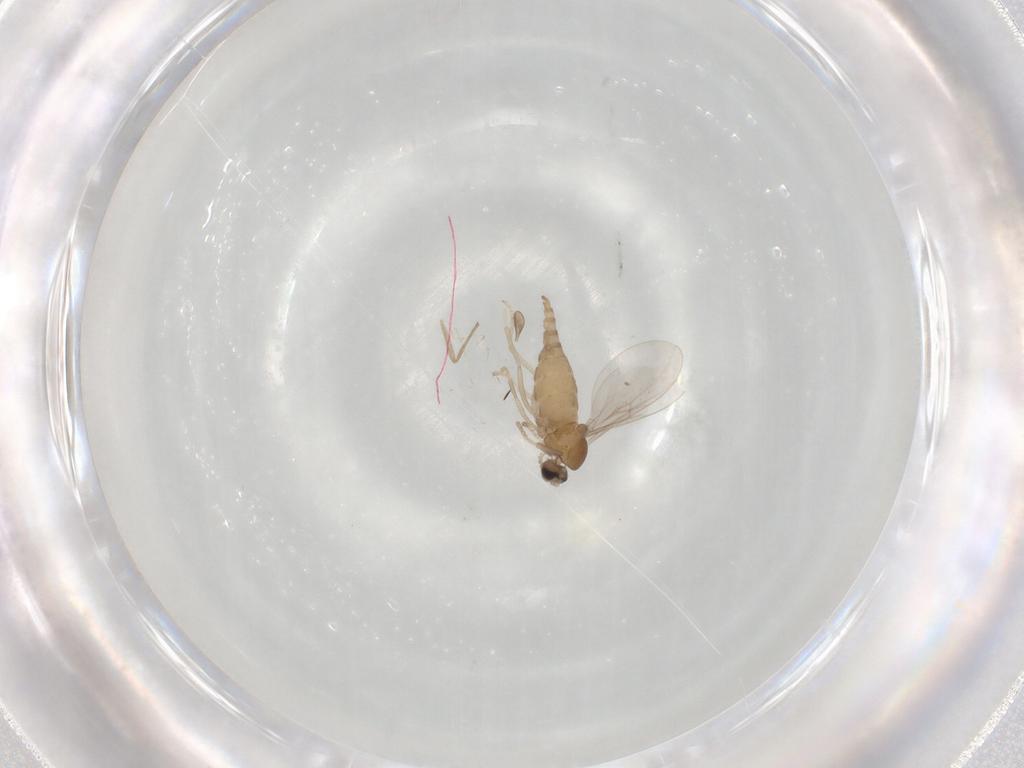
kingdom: Animalia
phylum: Arthropoda
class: Insecta
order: Diptera
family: Cecidomyiidae
